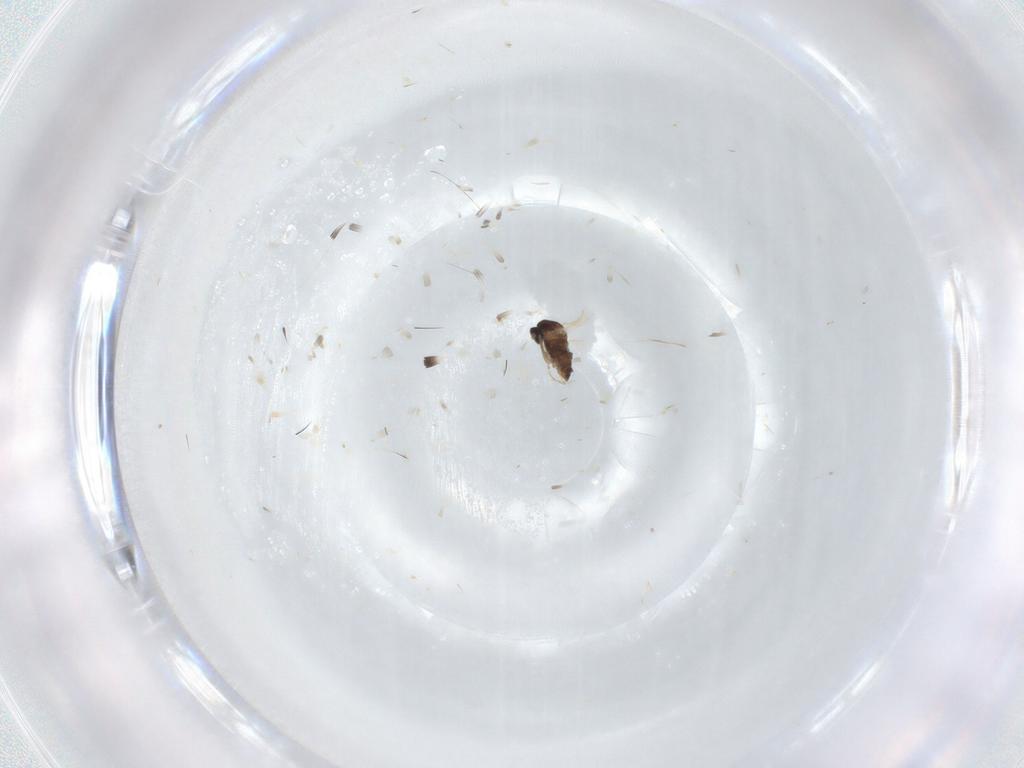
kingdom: Animalia
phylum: Arthropoda
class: Insecta
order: Diptera
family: Cecidomyiidae
